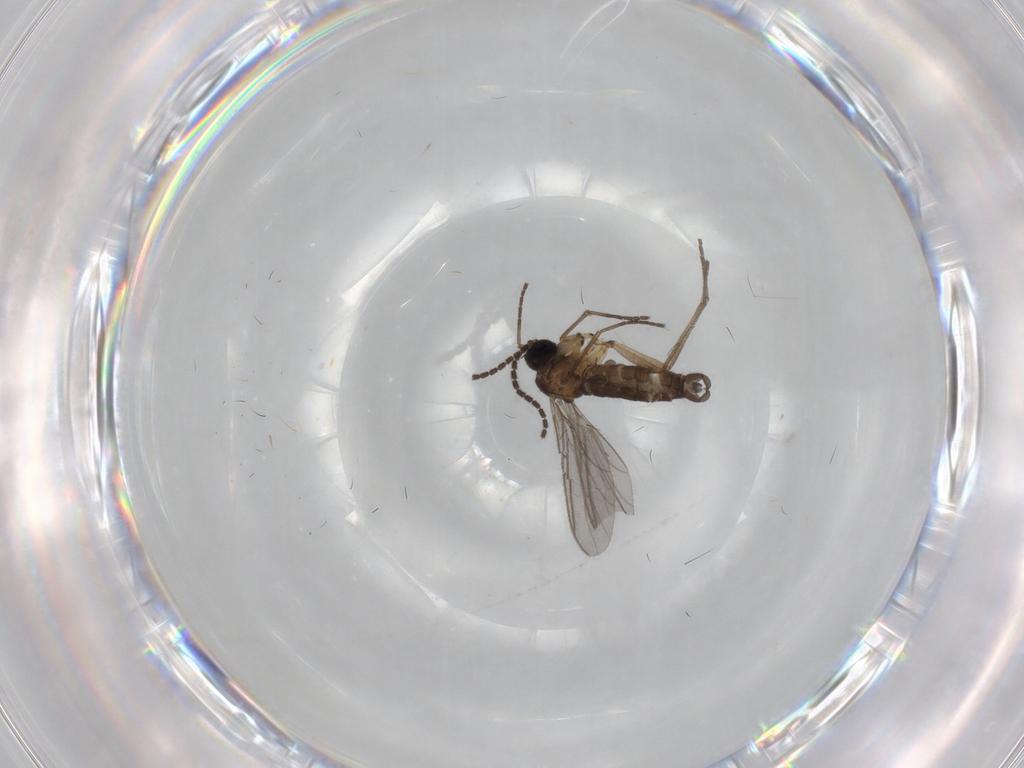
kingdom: Animalia
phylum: Arthropoda
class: Insecta
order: Diptera
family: Sciaridae
